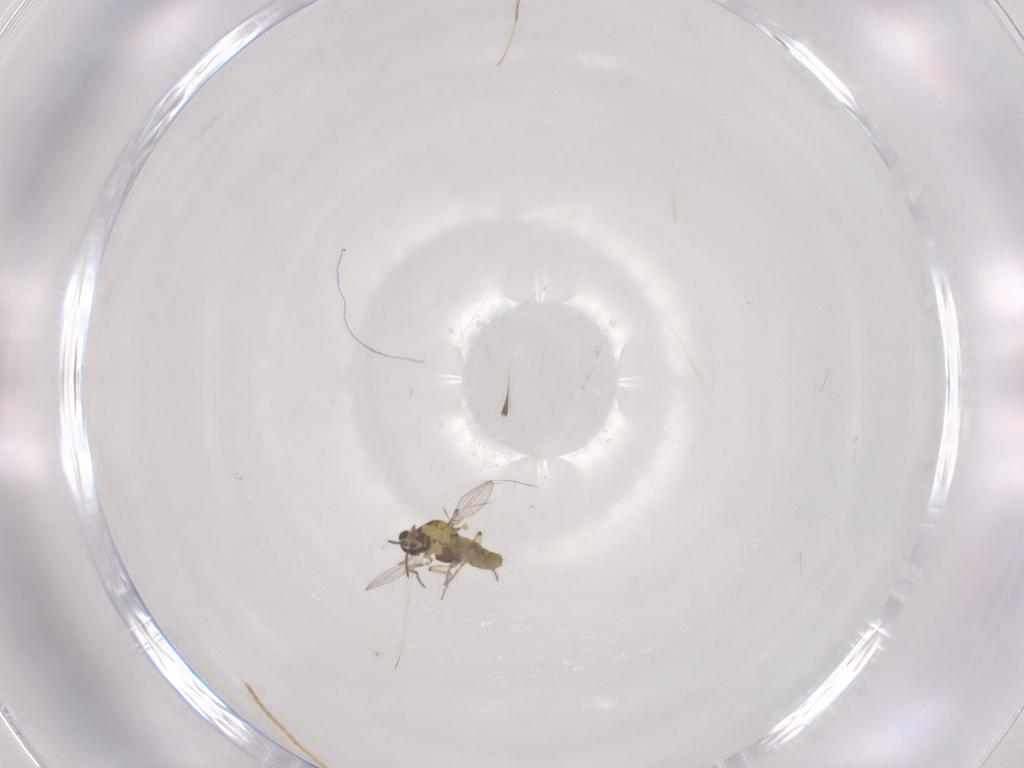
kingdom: Animalia
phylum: Arthropoda
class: Insecta
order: Diptera
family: Ceratopogonidae
